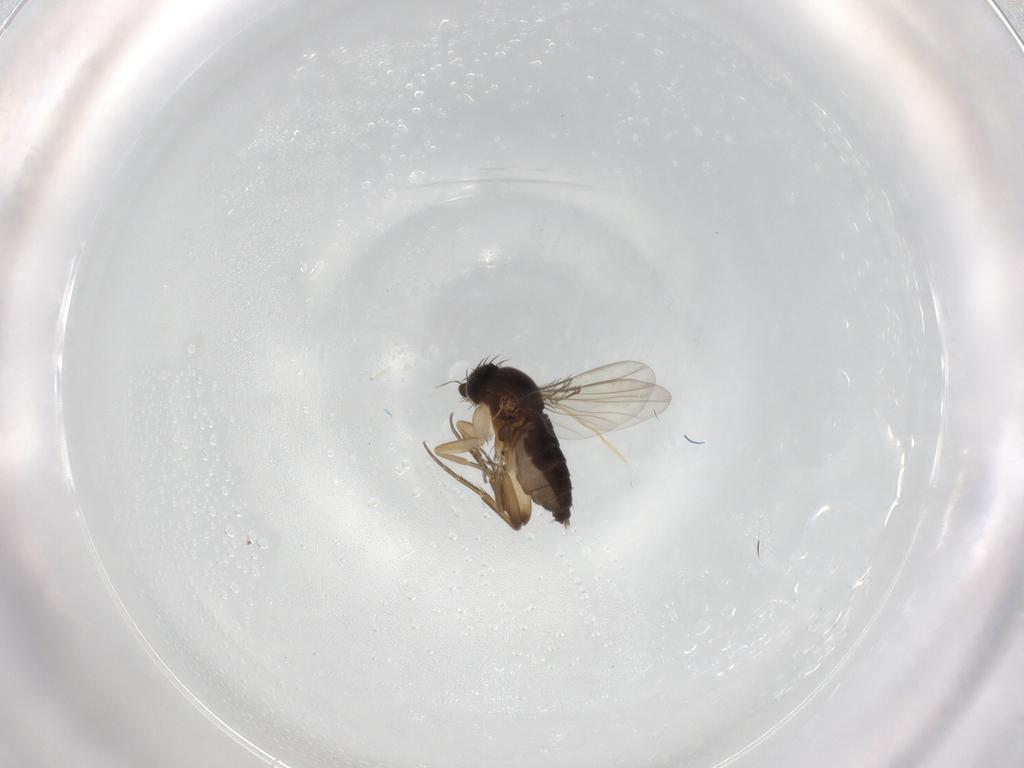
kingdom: Animalia
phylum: Arthropoda
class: Insecta
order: Diptera
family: Phoridae
